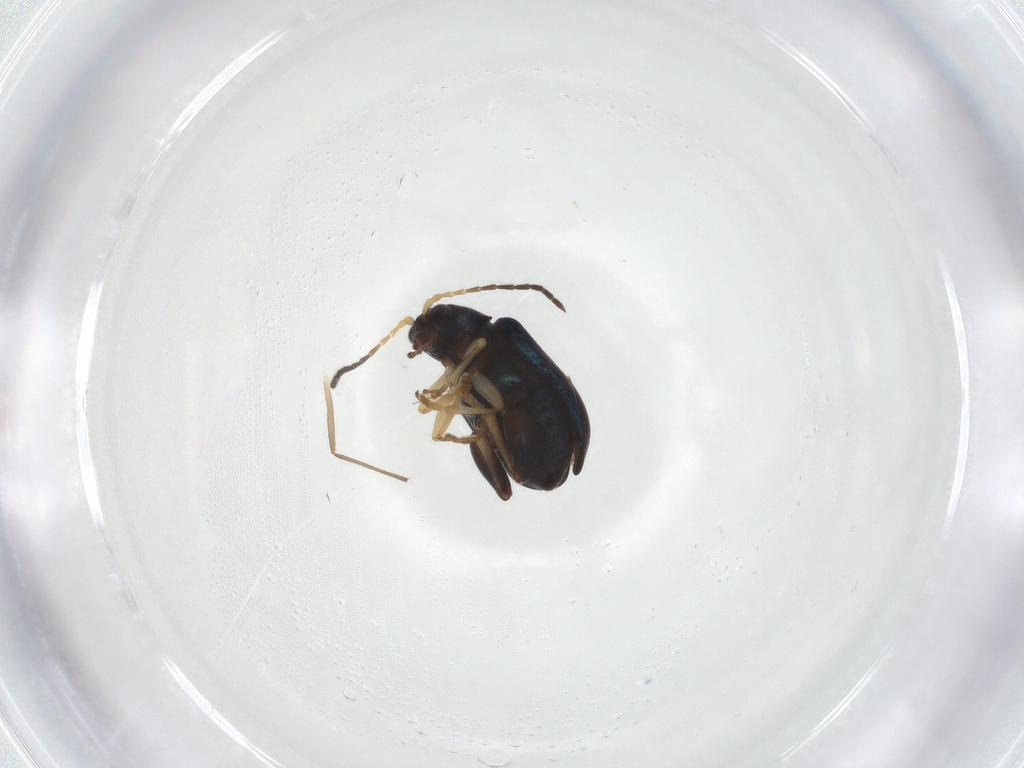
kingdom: Animalia
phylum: Arthropoda
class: Insecta
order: Coleoptera
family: Chrysomelidae
